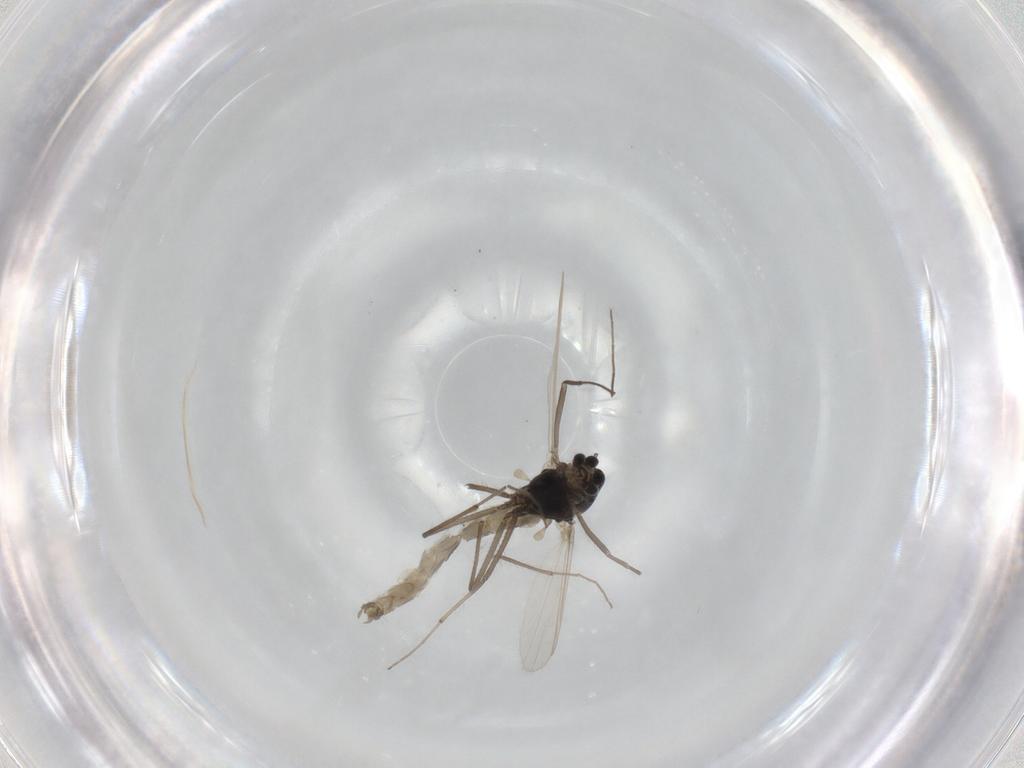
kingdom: Animalia
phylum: Arthropoda
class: Insecta
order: Diptera
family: Chironomidae
